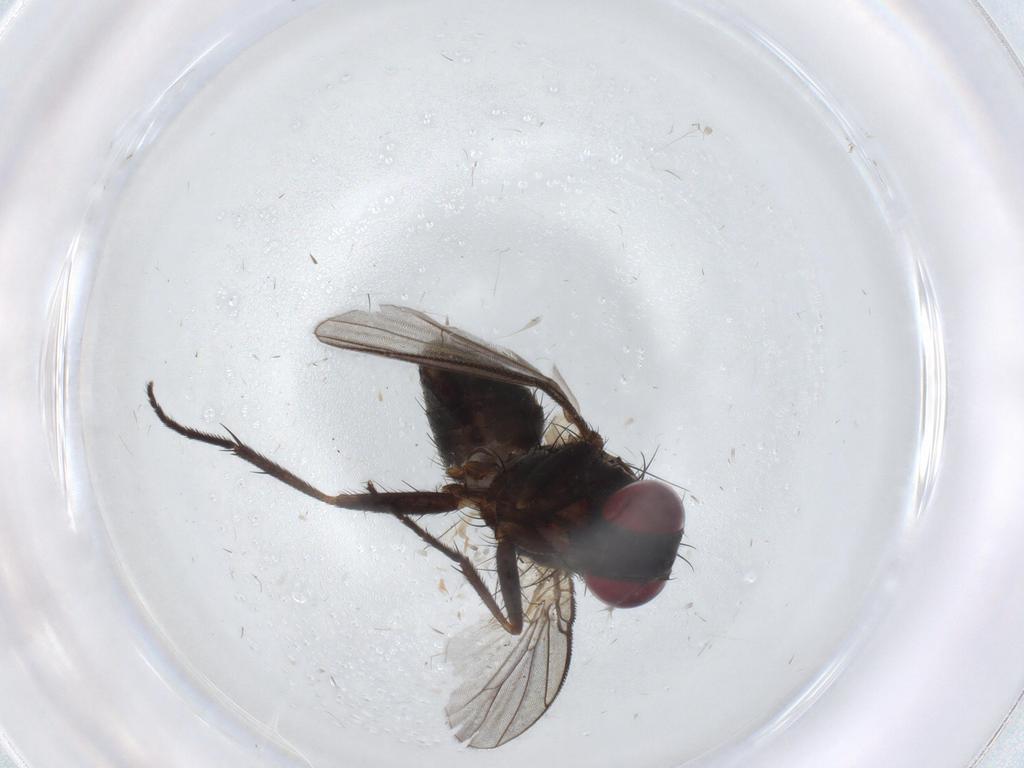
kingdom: Animalia
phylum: Arthropoda
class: Insecta
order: Diptera
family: Muscidae
